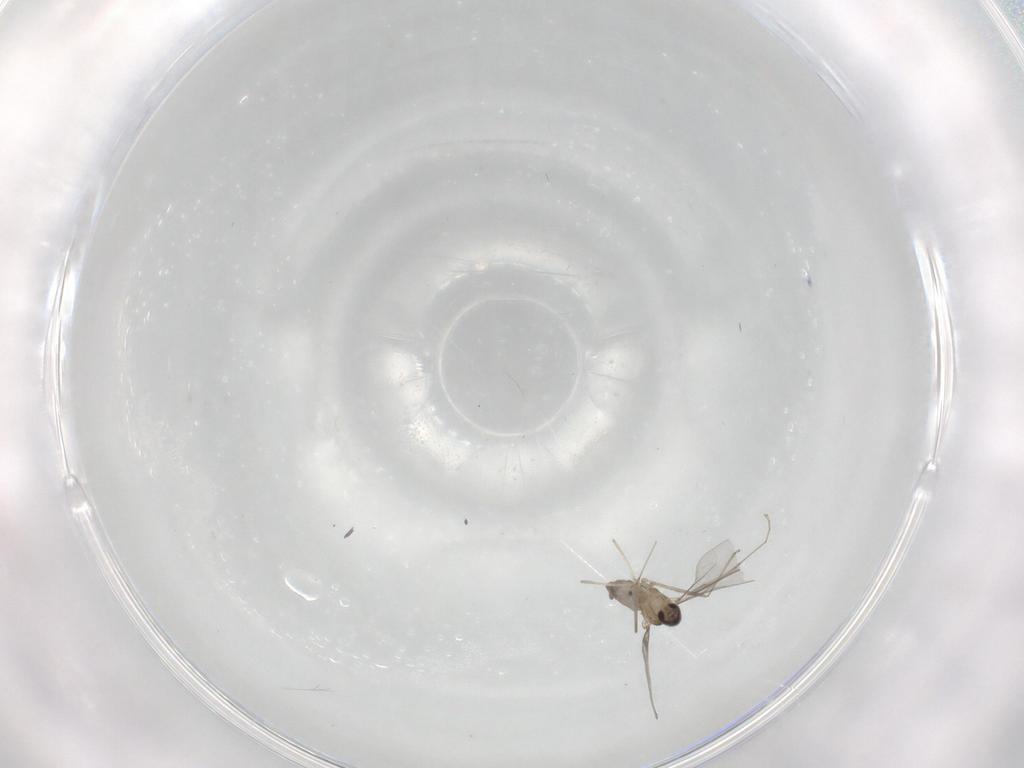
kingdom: Animalia
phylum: Arthropoda
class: Insecta
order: Diptera
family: Cecidomyiidae
